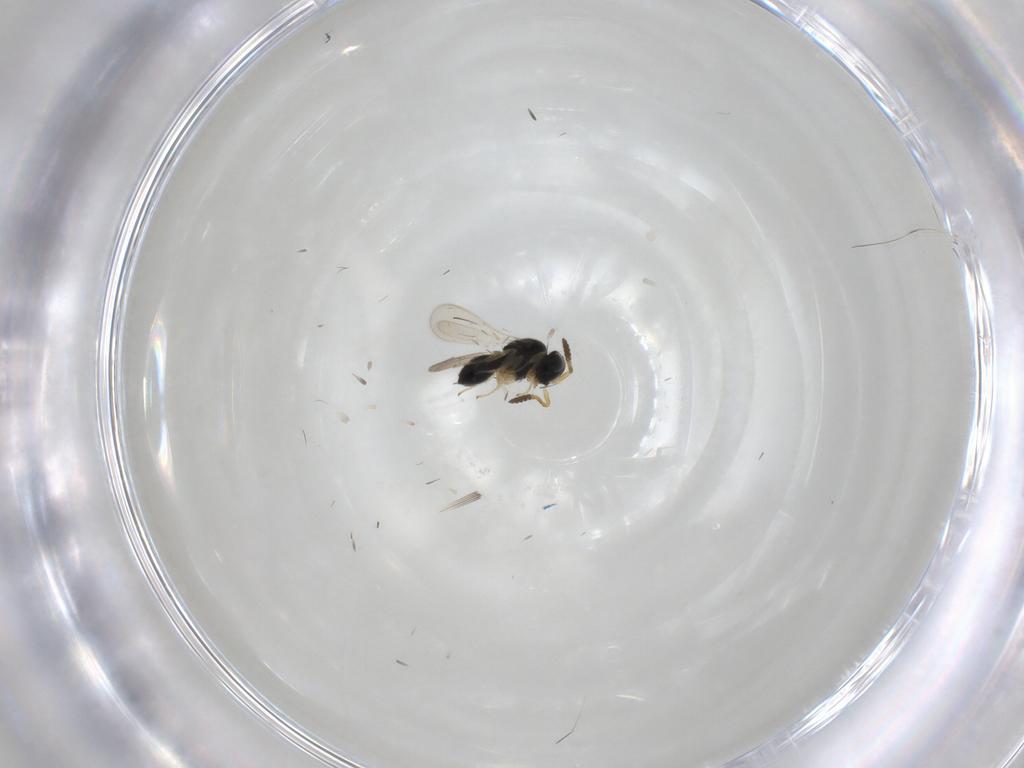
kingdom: Animalia
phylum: Arthropoda
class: Insecta
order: Hymenoptera
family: Scelionidae
